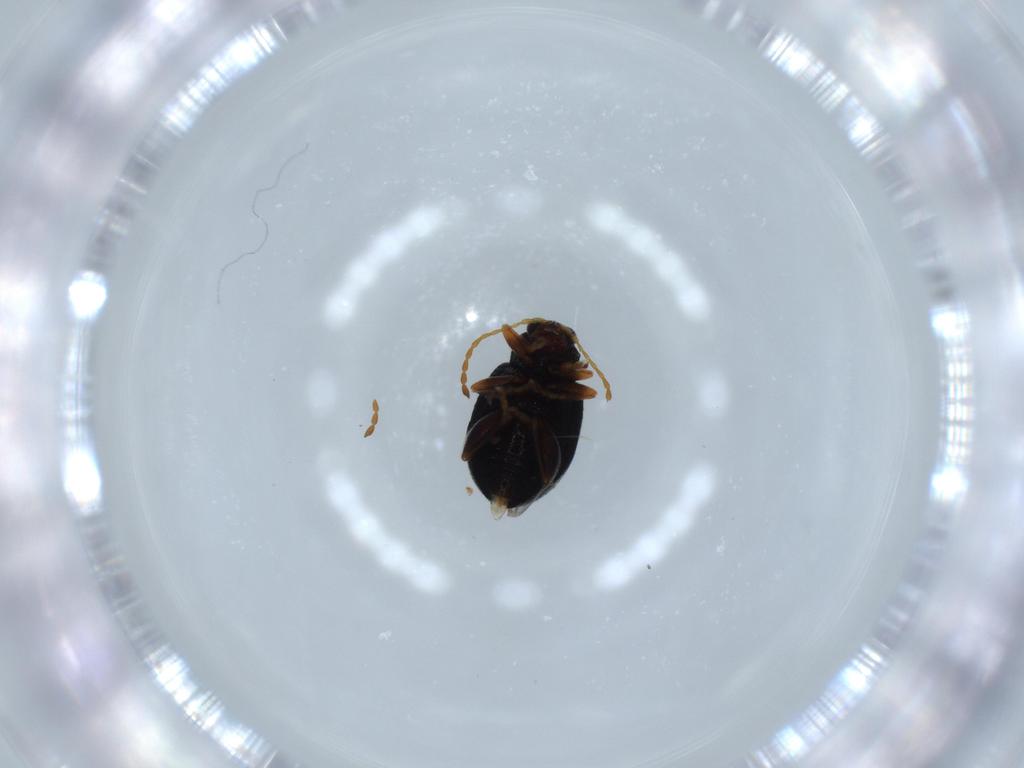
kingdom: Animalia
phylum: Arthropoda
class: Insecta
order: Coleoptera
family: Chrysomelidae
